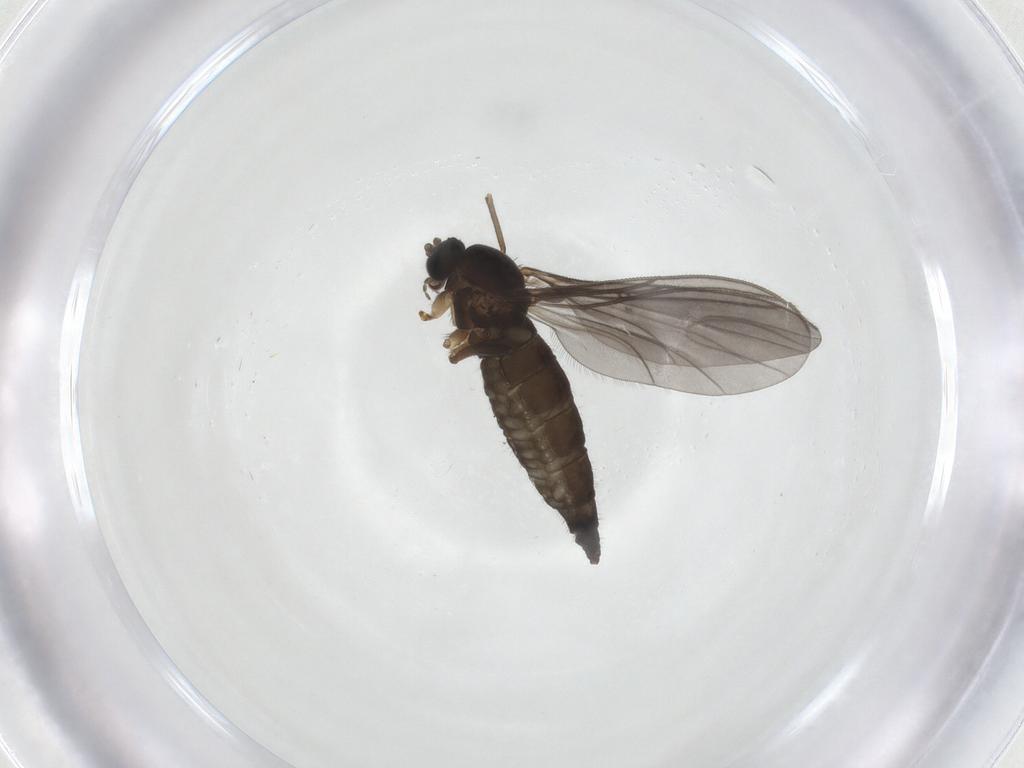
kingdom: Animalia
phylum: Arthropoda
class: Insecta
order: Diptera
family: Sciaridae
